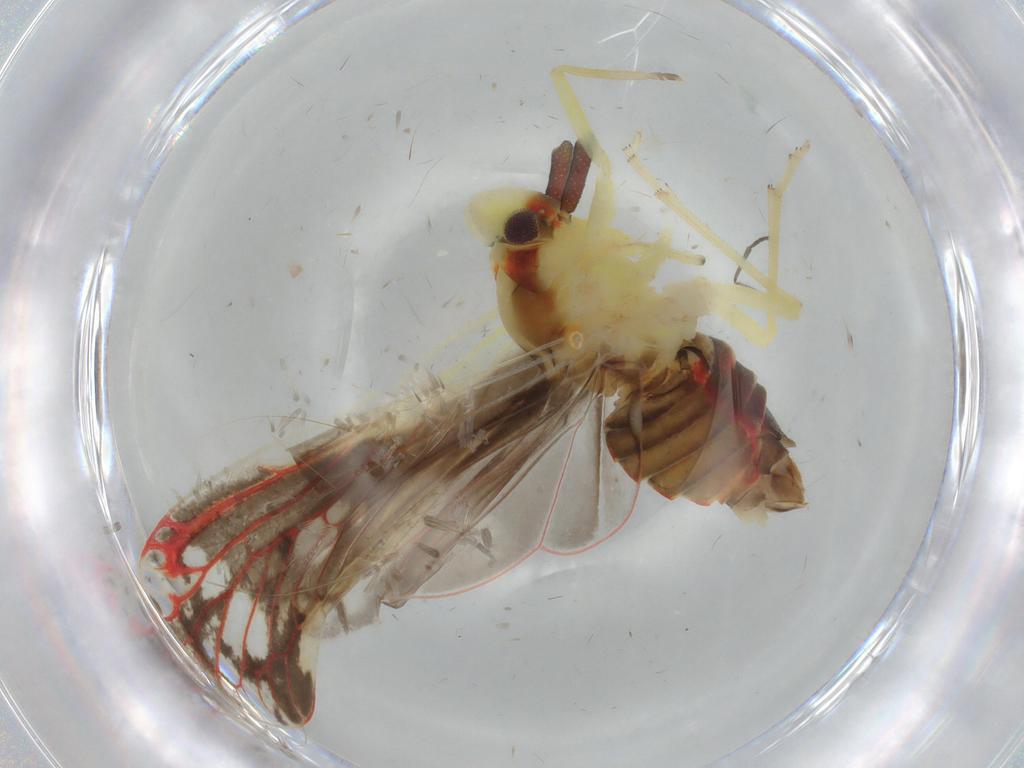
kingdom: Animalia
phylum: Arthropoda
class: Insecta
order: Hemiptera
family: Derbidae
